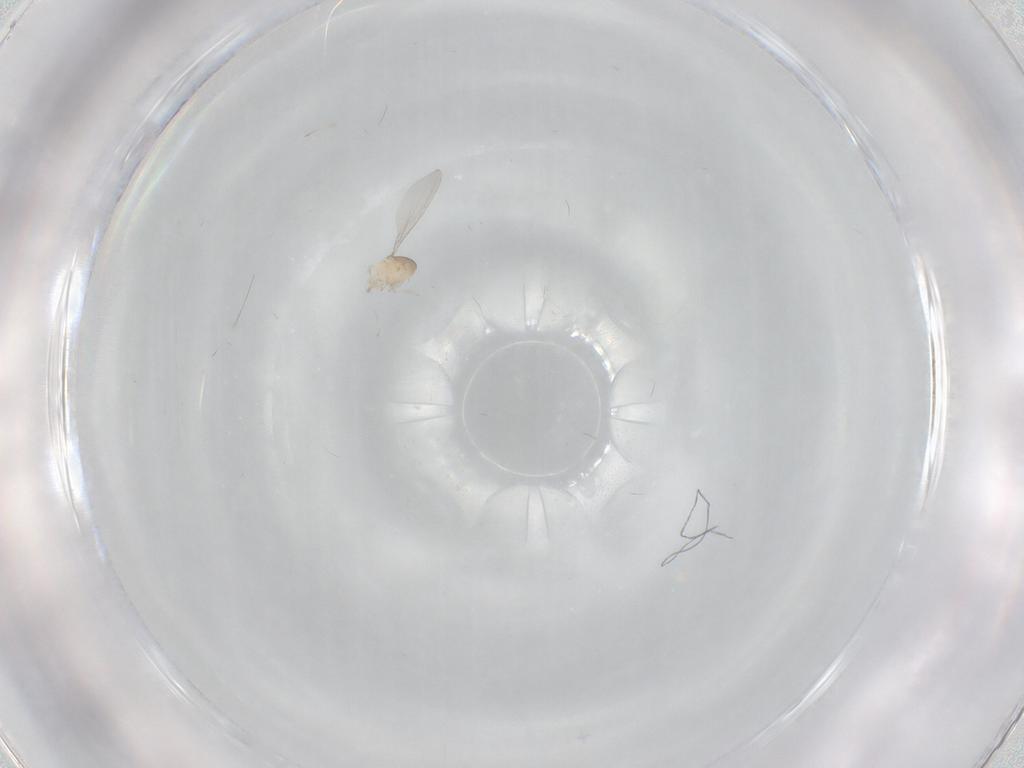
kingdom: Animalia
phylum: Arthropoda
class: Insecta
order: Diptera
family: Cecidomyiidae
